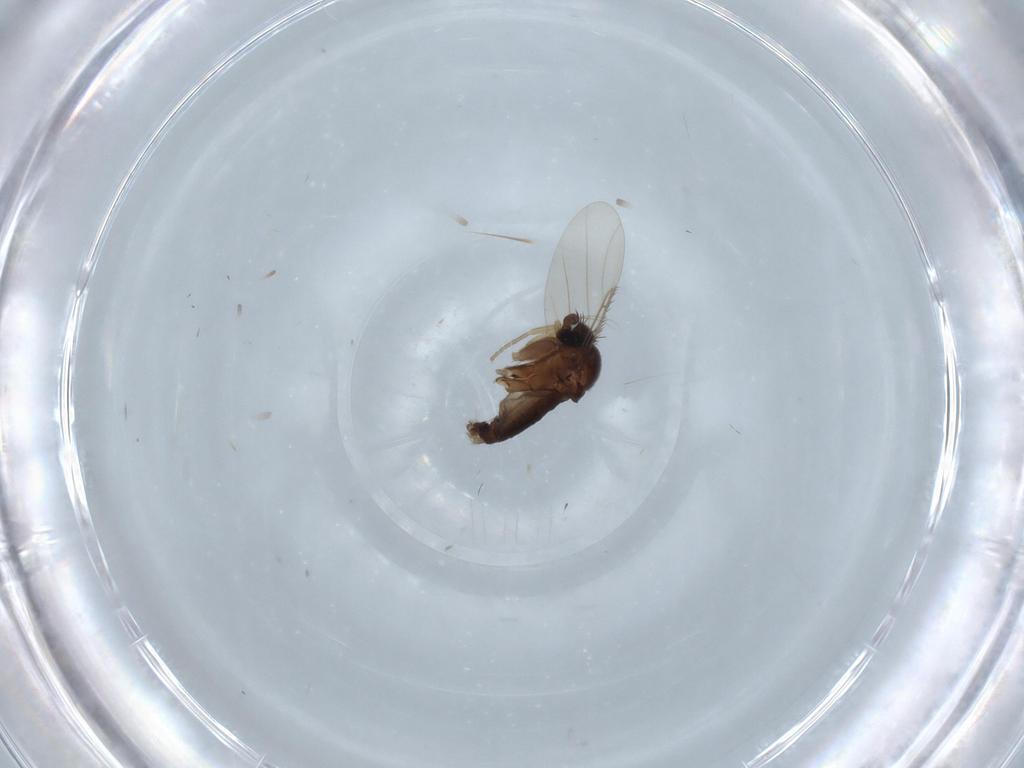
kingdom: Animalia
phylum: Arthropoda
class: Insecta
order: Diptera
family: Phoridae
